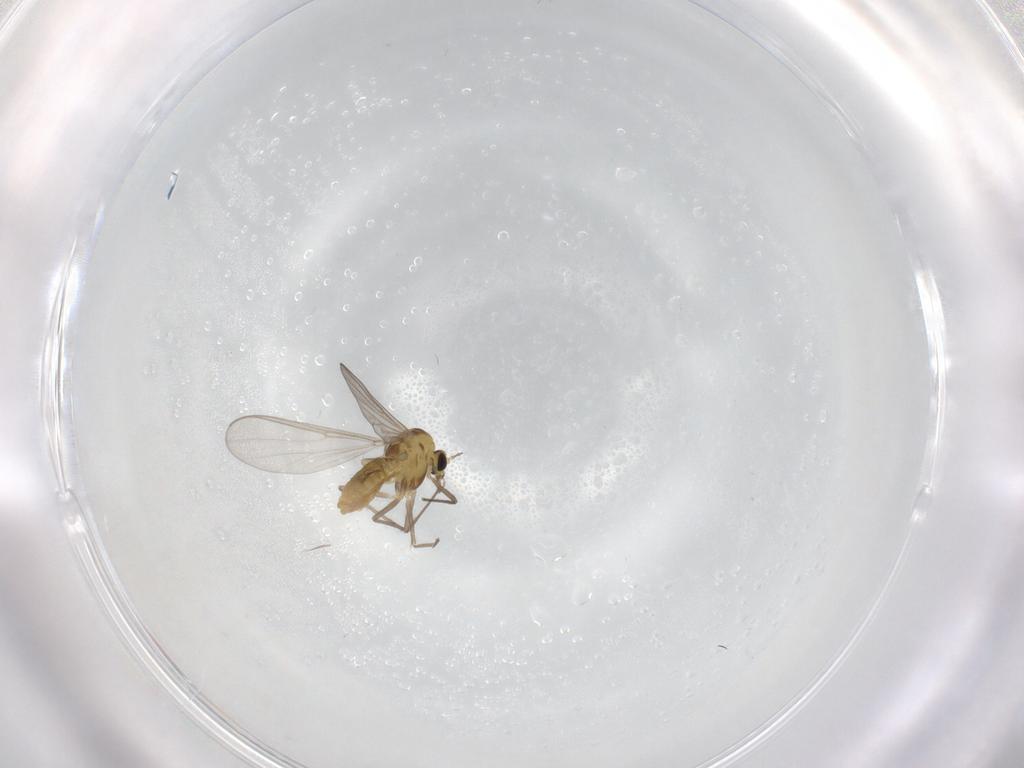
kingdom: Animalia
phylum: Arthropoda
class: Insecta
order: Diptera
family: Chironomidae
